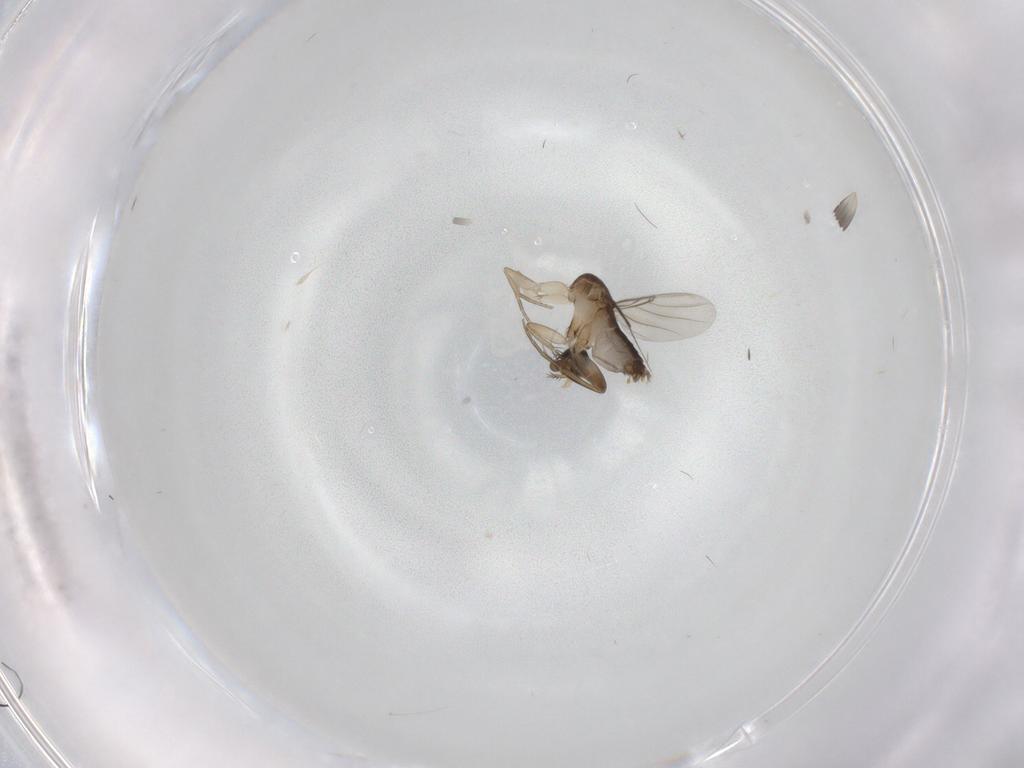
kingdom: Animalia
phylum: Arthropoda
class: Insecta
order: Diptera
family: Cecidomyiidae
